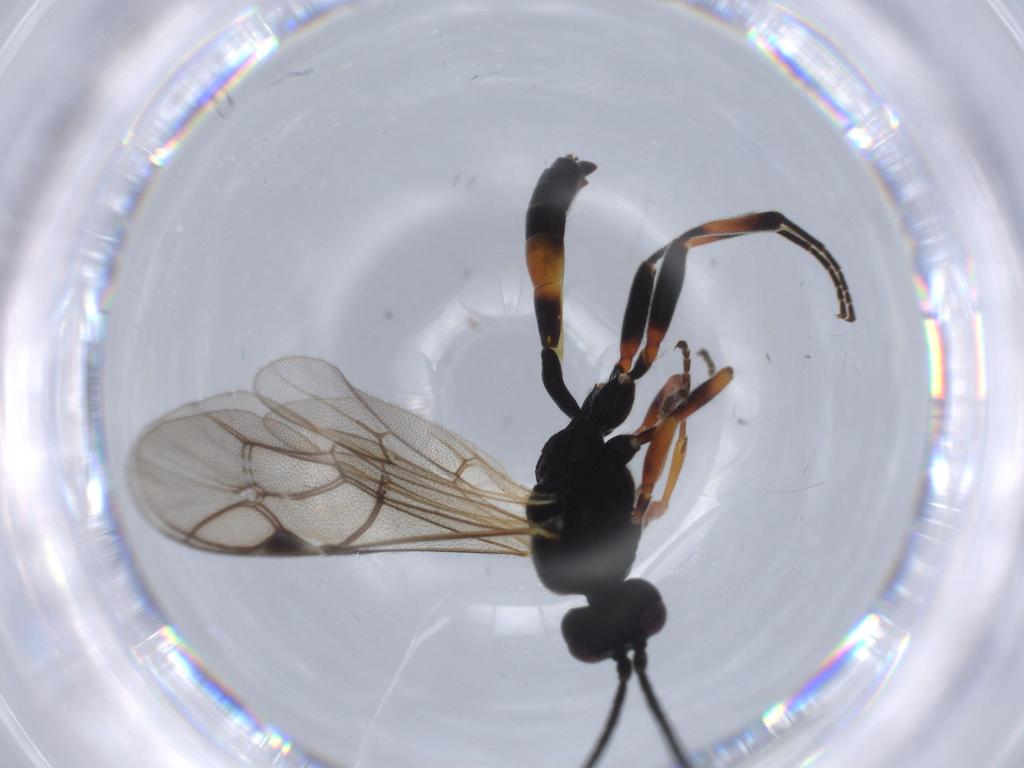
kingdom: Animalia
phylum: Arthropoda
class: Insecta
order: Hymenoptera
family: Ichneumonidae
